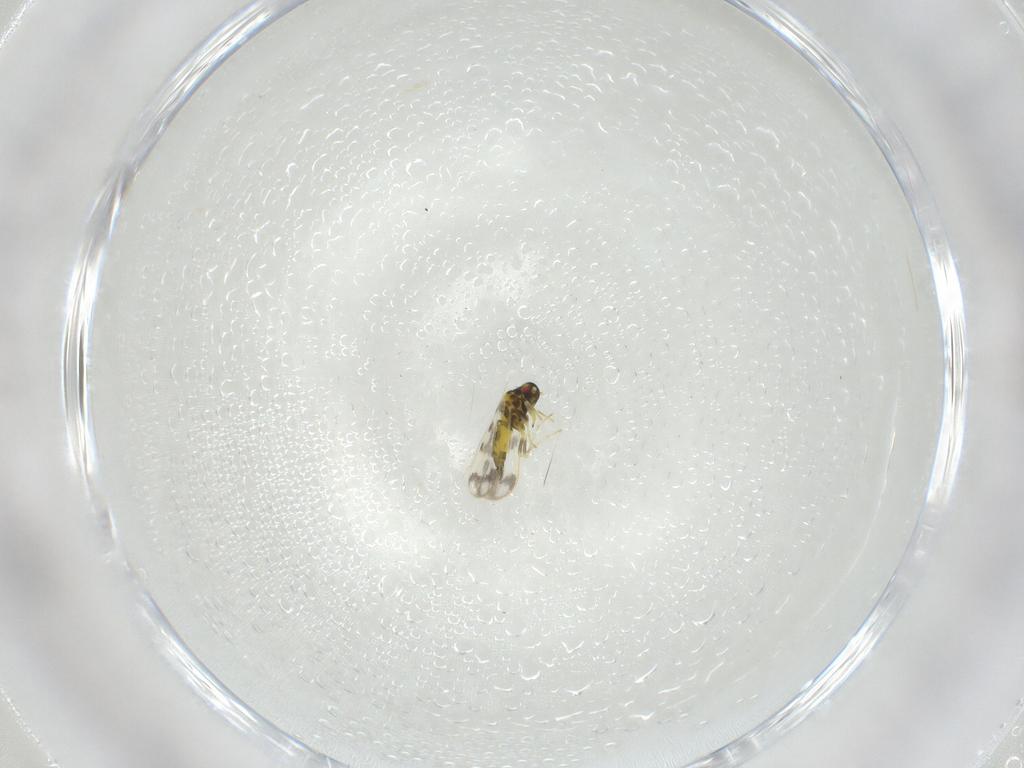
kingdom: Animalia
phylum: Arthropoda
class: Insecta
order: Hemiptera
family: Aleyrodidae
